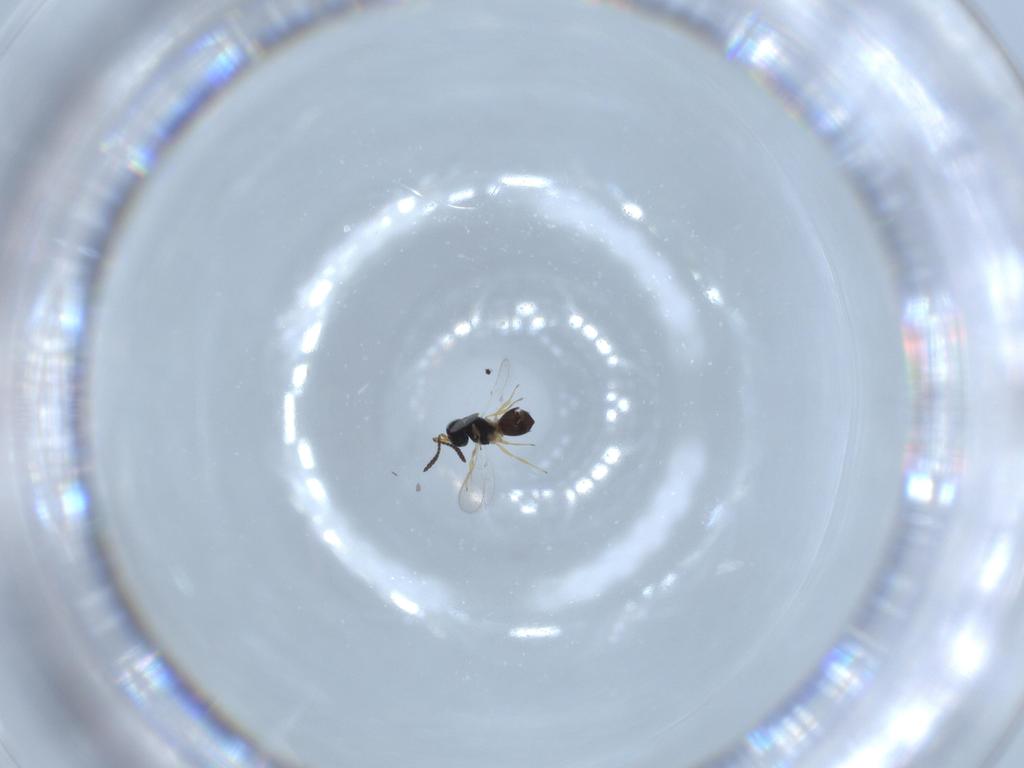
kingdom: Animalia
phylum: Arthropoda
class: Insecta
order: Hymenoptera
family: Scelionidae
